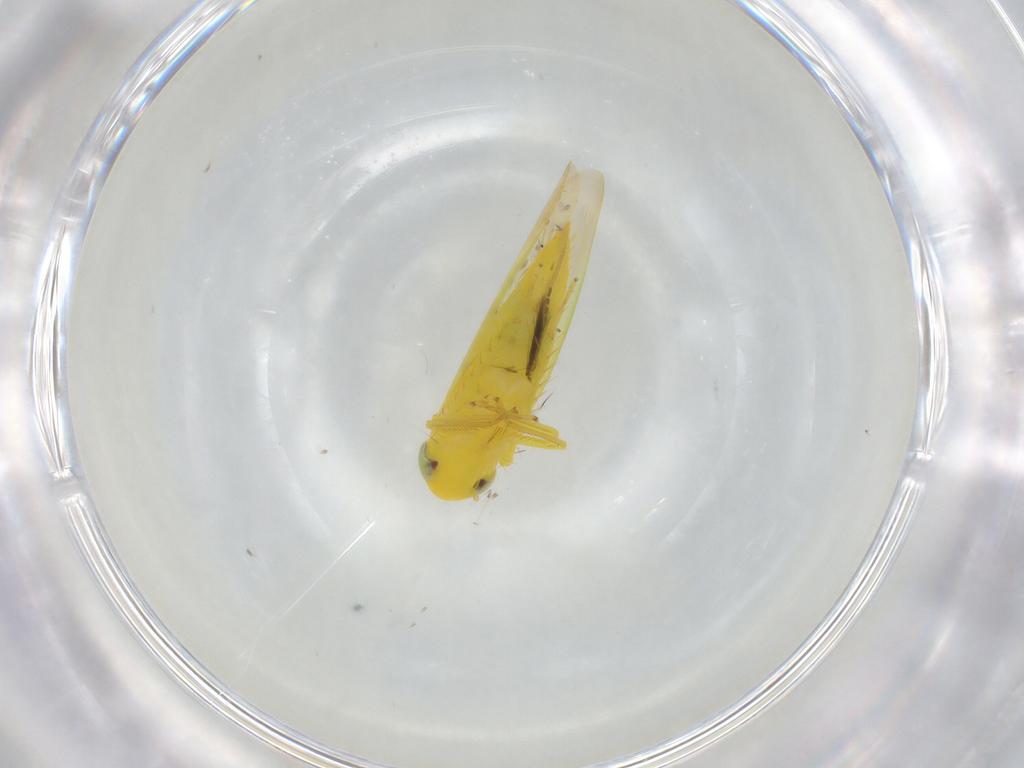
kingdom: Animalia
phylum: Arthropoda
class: Insecta
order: Hemiptera
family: Cicadellidae
